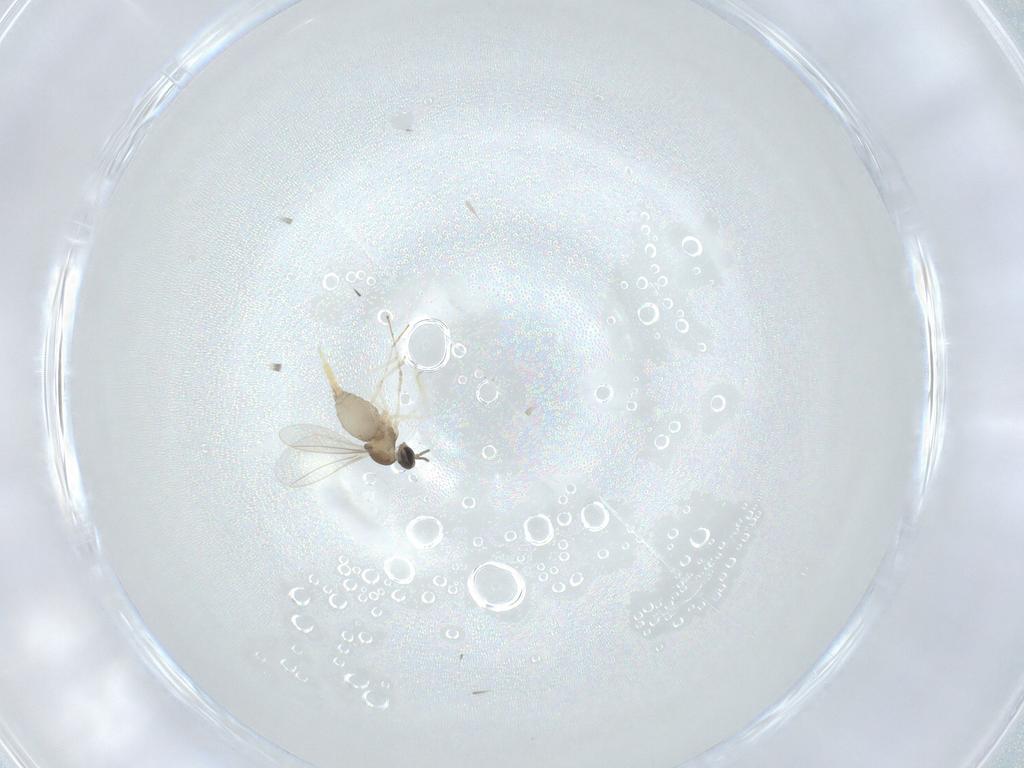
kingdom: Animalia
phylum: Arthropoda
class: Insecta
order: Diptera
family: Cecidomyiidae
